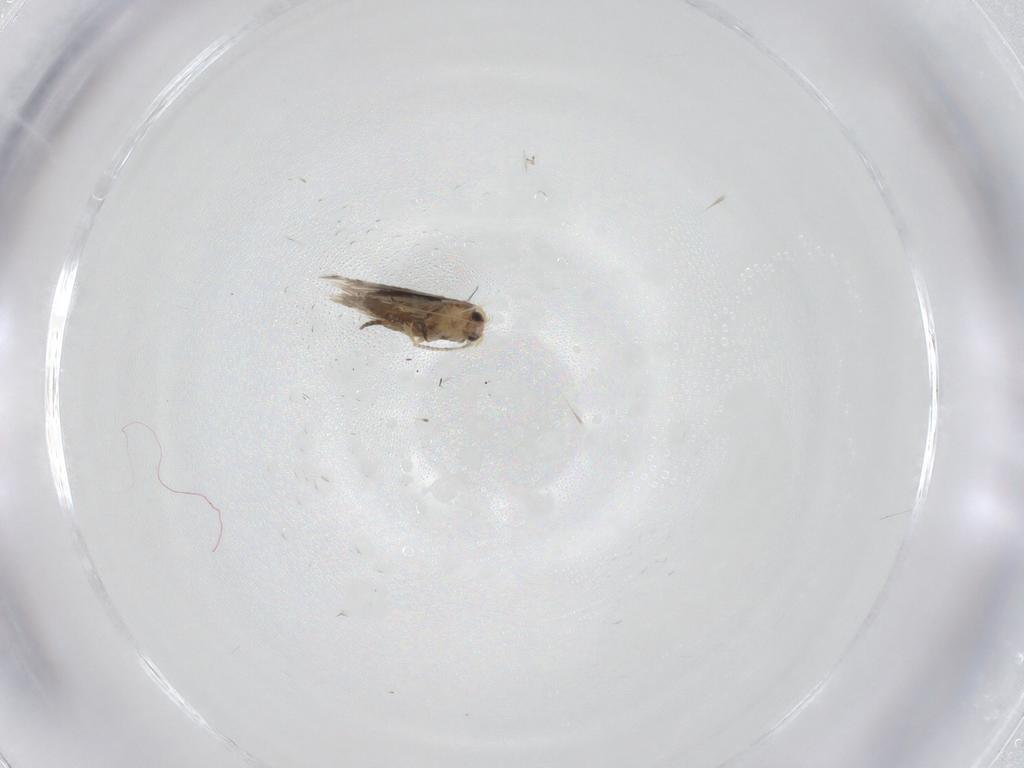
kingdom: Animalia
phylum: Arthropoda
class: Insecta
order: Lepidoptera
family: Nepticulidae
